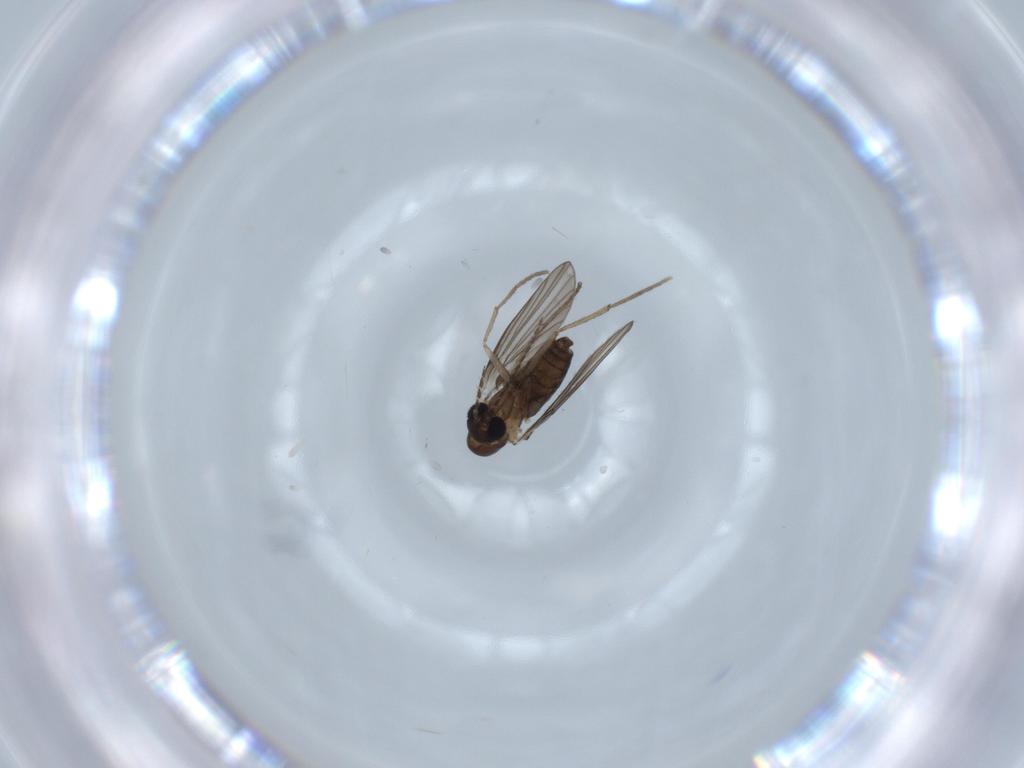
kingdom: Animalia
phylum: Arthropoda
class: Insecta
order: Diptera
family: Psychodidae
